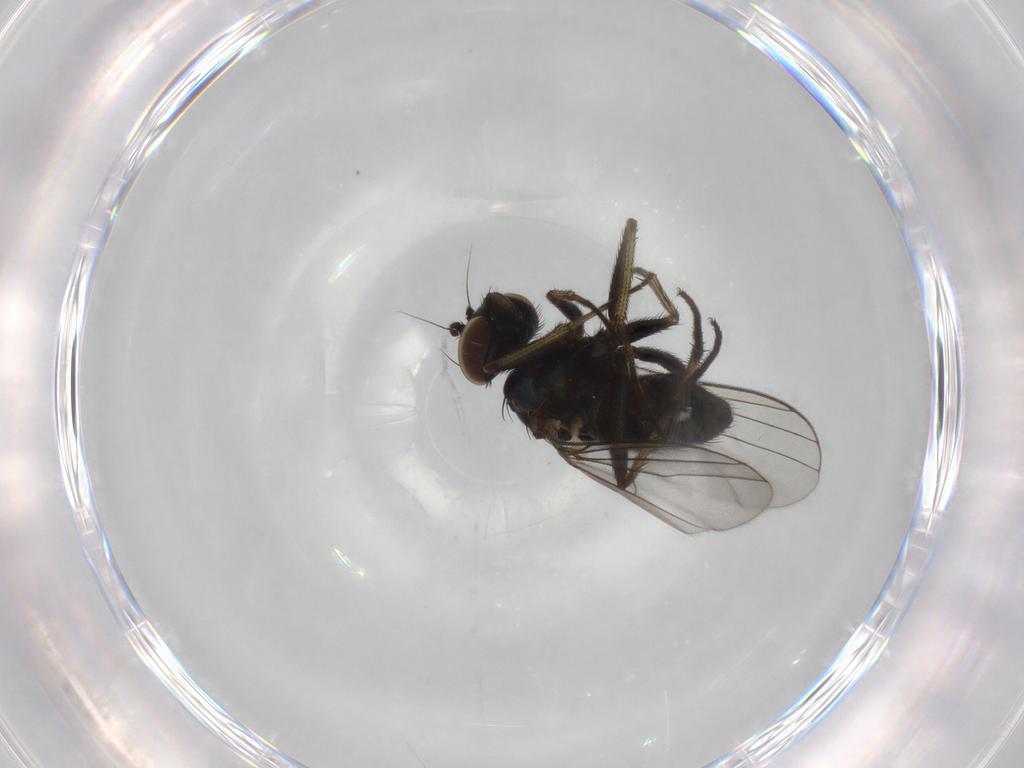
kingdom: Animalia
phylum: Arthropoda
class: Insecta
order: Diptera
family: Dolichopodidae
